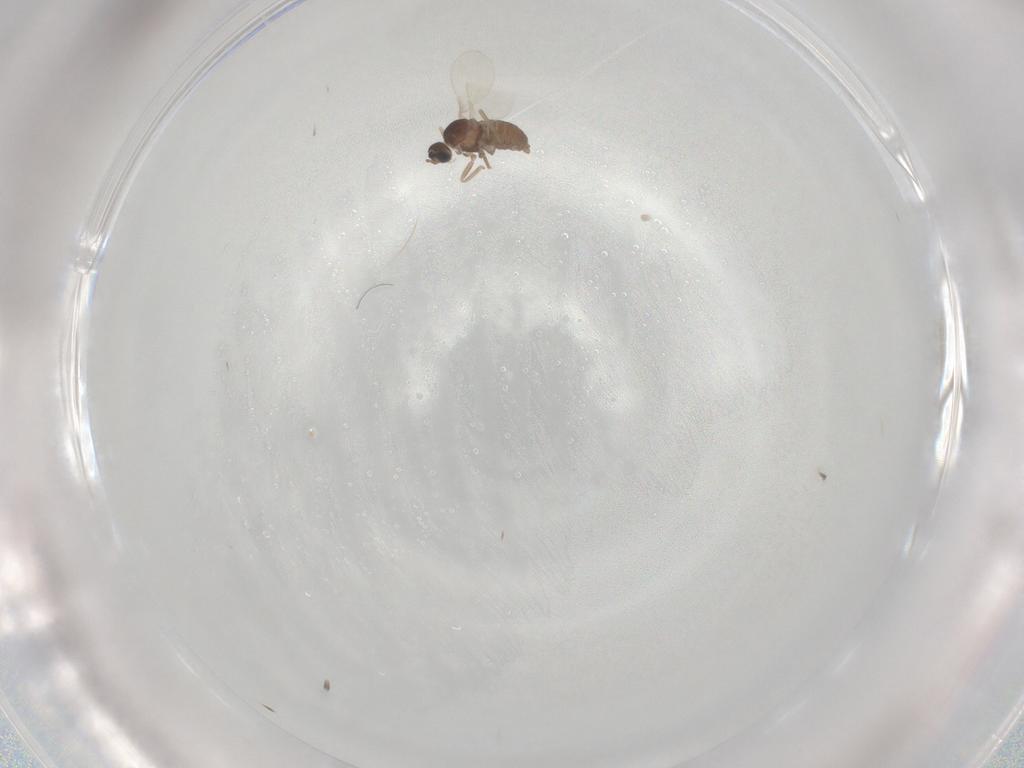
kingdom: Animalia
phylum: Arthropoda
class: Insecta
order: Diptera
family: Cecidomyiidae
